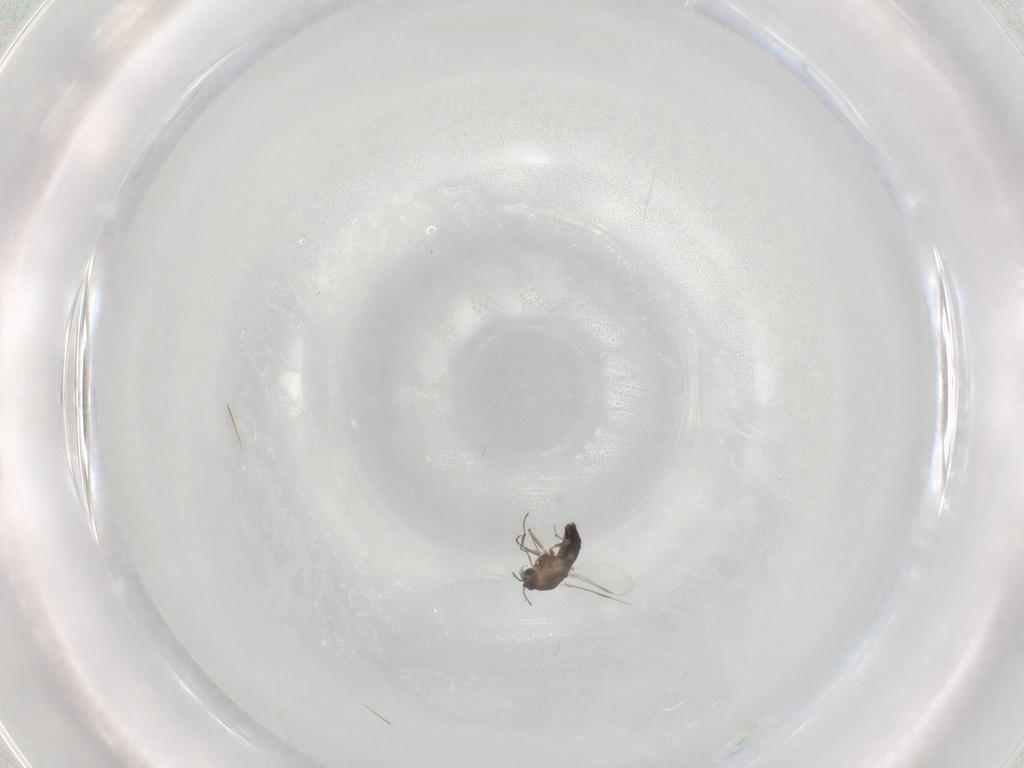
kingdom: Animalia
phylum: Arthropoda
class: Insecta
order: Diptera
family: Chironomidae
